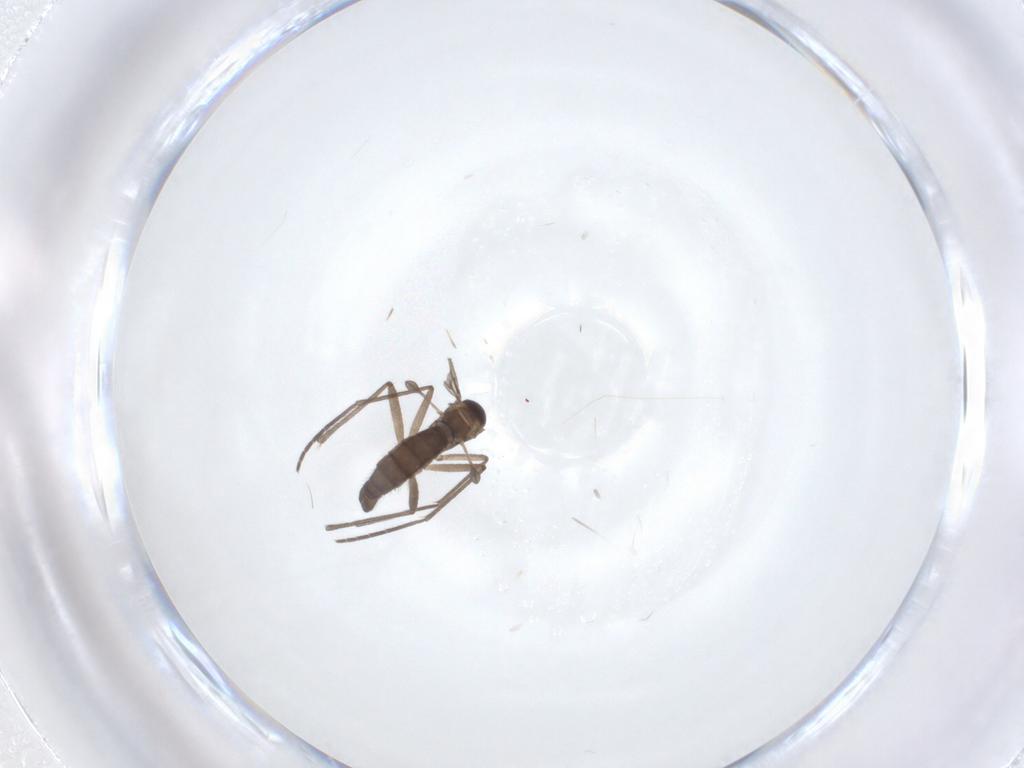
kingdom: Animalia
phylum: Arthropoda
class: Insecta
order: Diptera
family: Sciaridae
